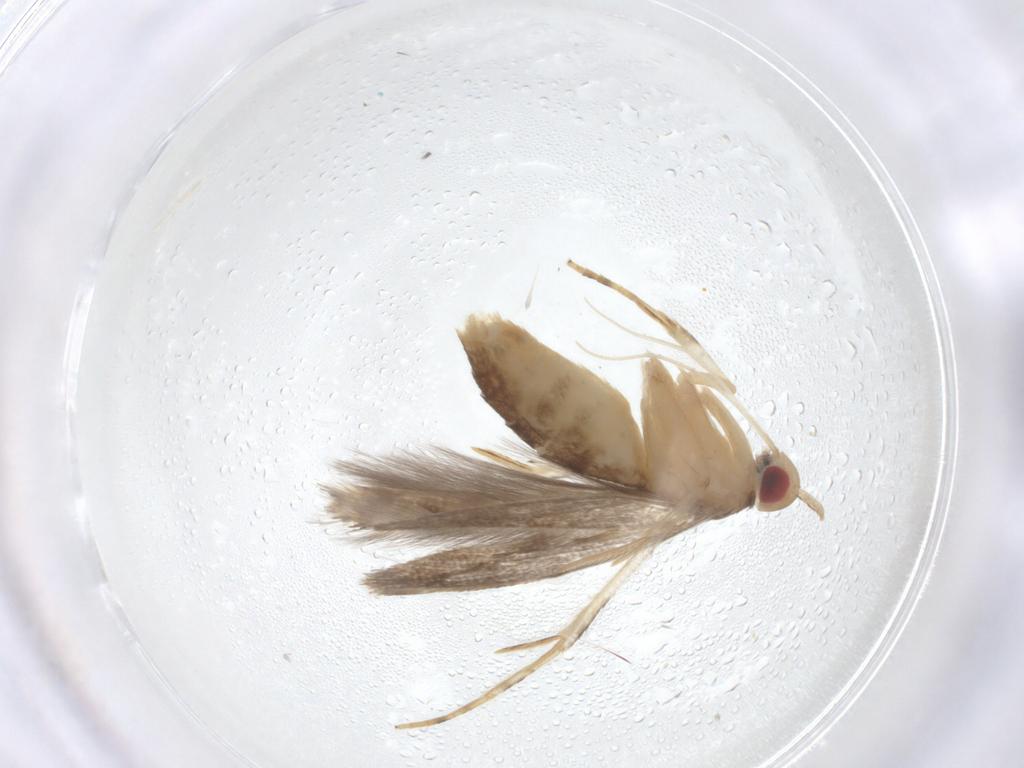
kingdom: Animalia
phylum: Arthropoda
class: Insecta
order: Lepidoptera
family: Cosmopterigidae
